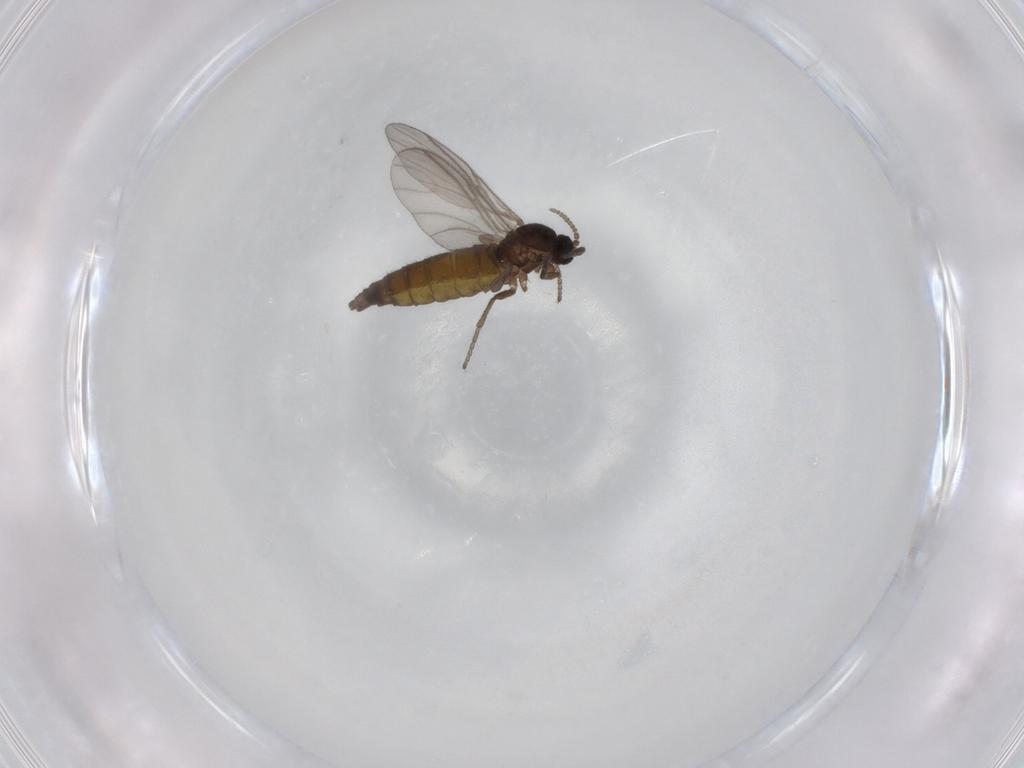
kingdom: Animalia
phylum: Arthropoda
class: Insecta
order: Diptera
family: Sciaridae
